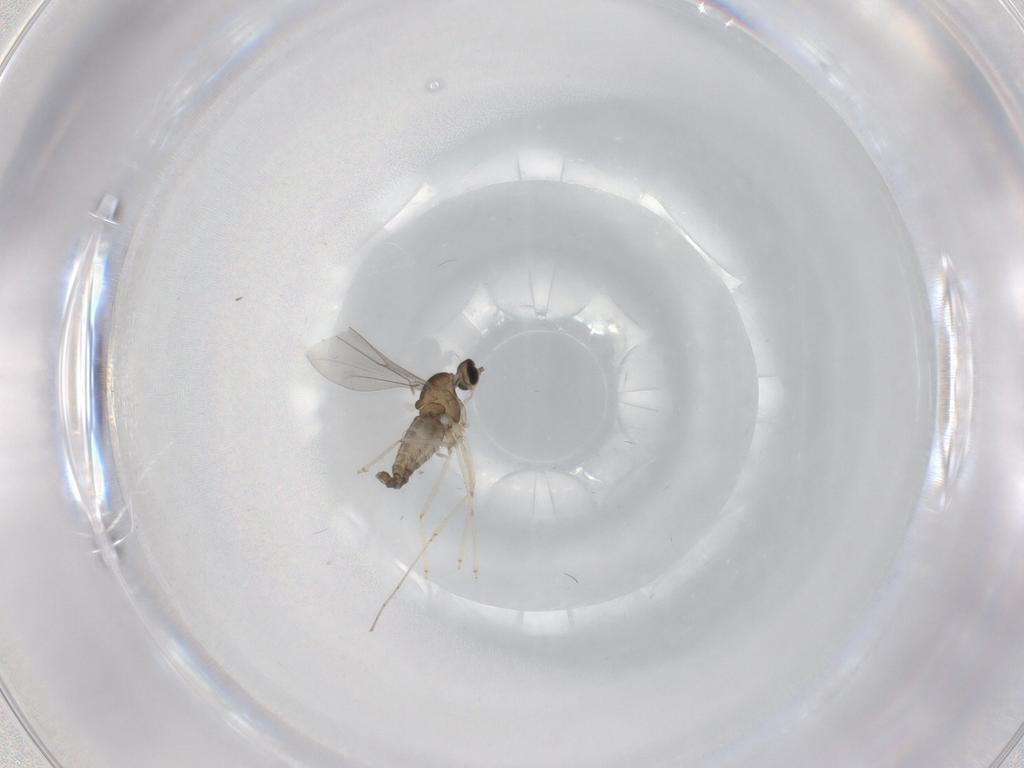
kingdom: Animalia
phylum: Arthropoda
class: Insecta
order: Diptera
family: Cecidomyiidae
